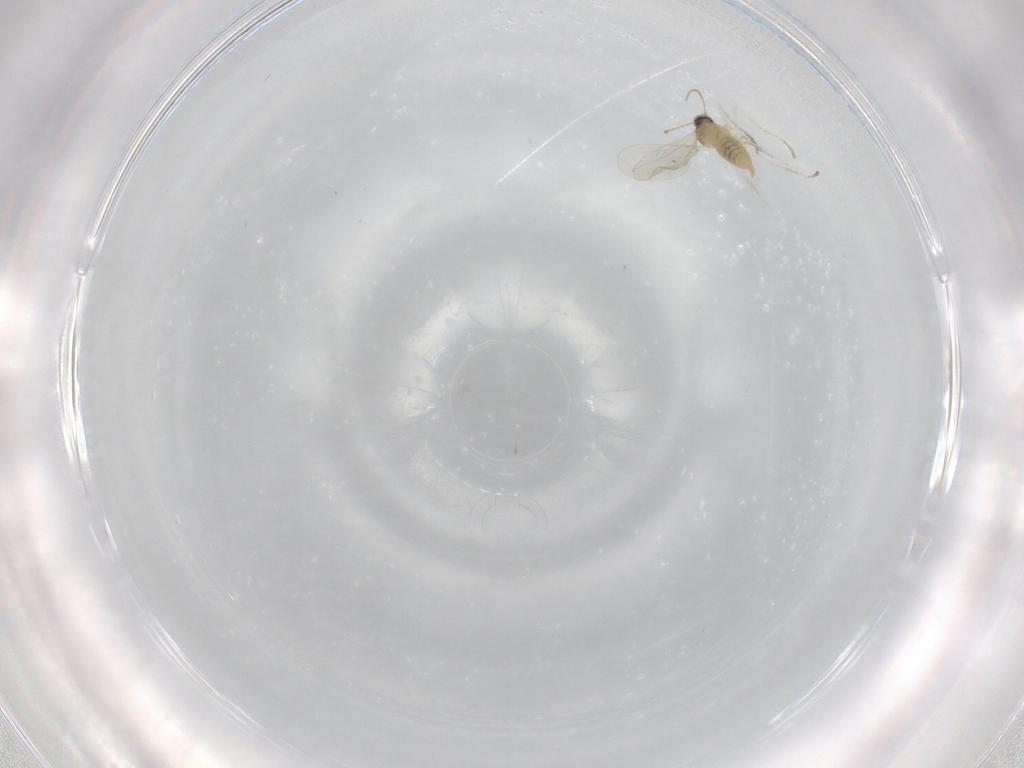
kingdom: Animalia
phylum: Arthropoda
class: Insecta
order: Diptera
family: Cecidomyiidae
